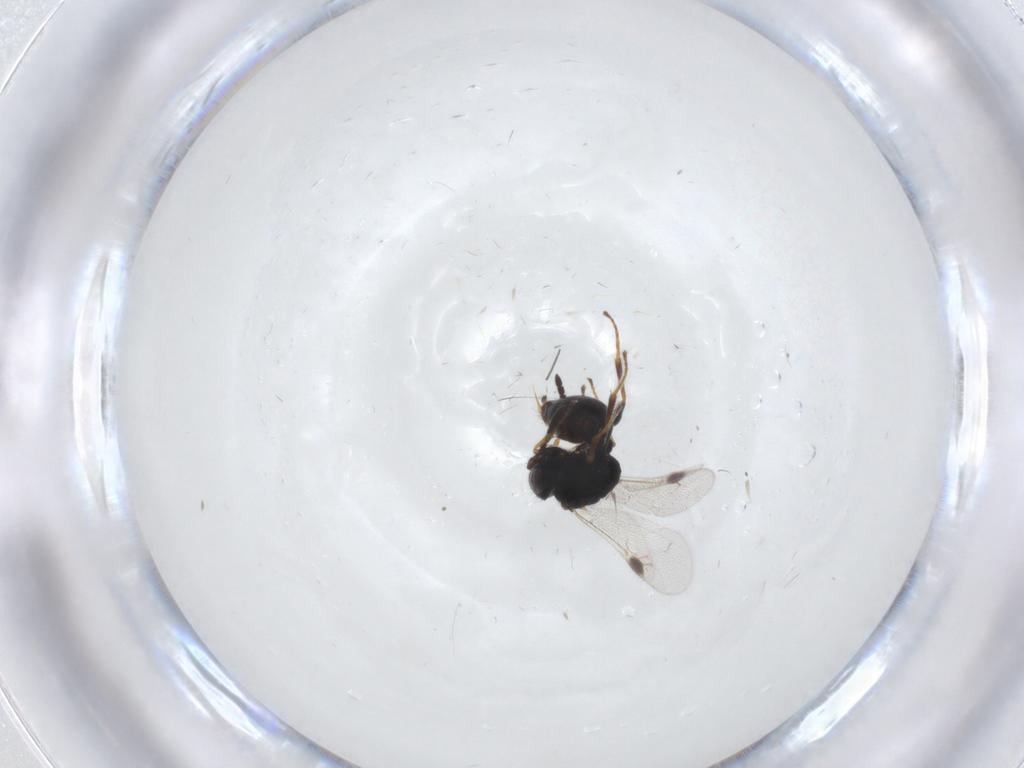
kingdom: Animalia
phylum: Arthropoda
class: Insecta
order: Hymenoptera
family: Dryinidae
